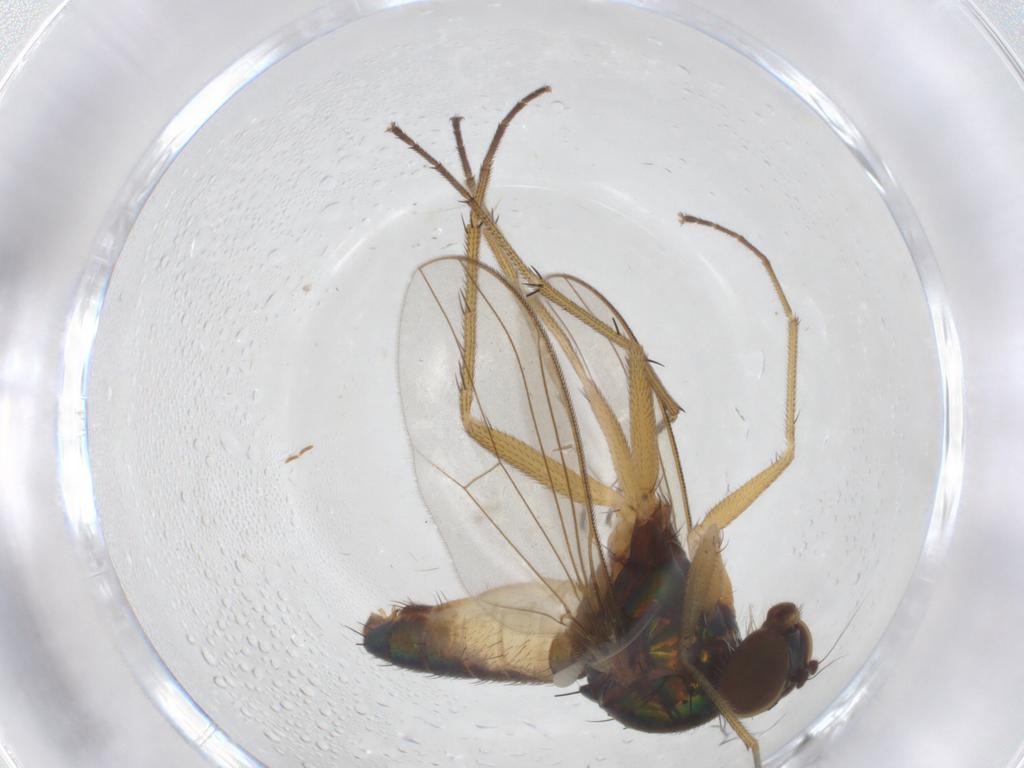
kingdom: Animalia
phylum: Arthropoda
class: Insecta
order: Diptera
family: Dolichopodidae
